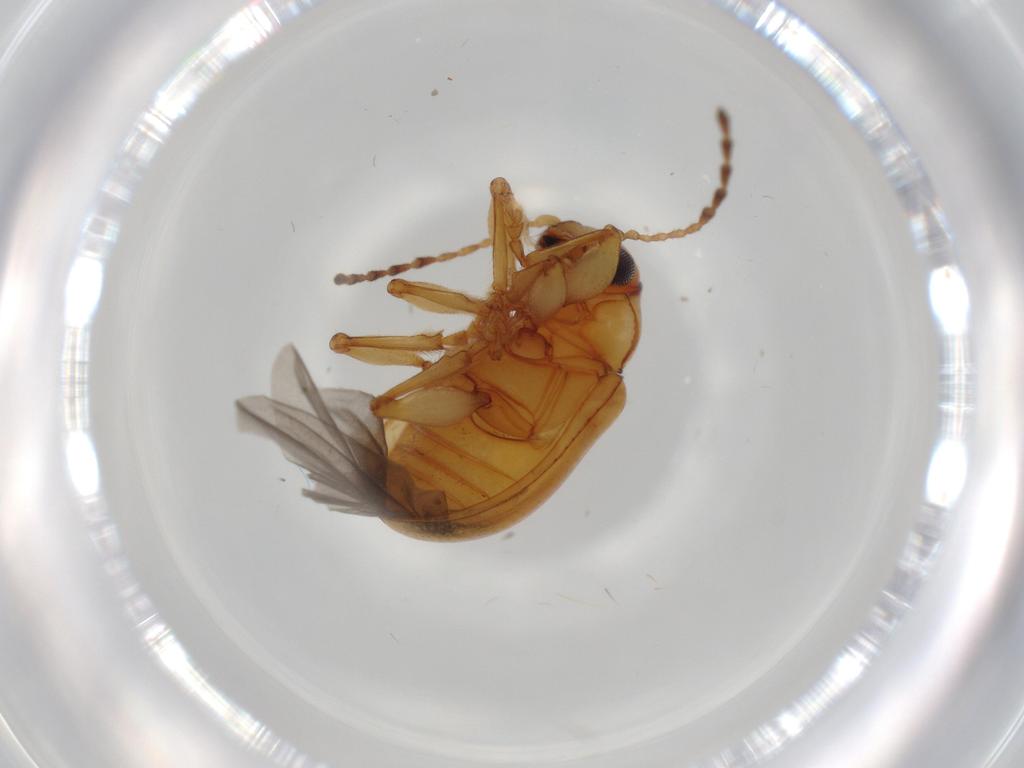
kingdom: Animalia
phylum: Arthropoda
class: Insecta
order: Coleoptera
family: Chrysomelidae
